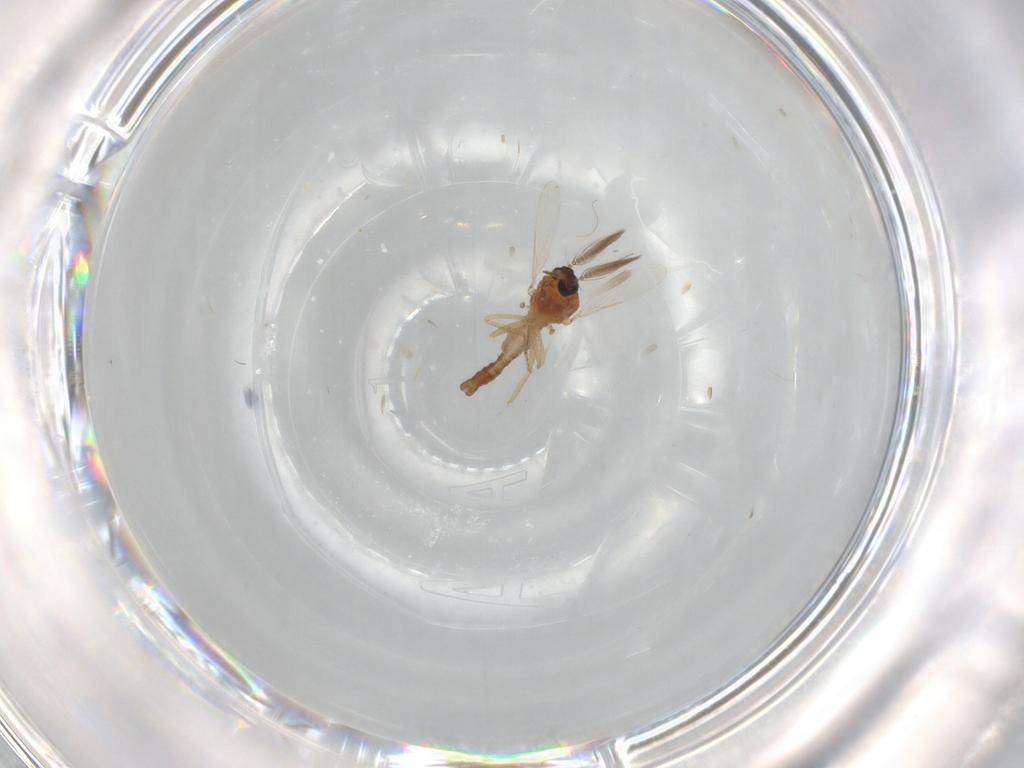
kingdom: Animalia
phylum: Arthropoda
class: Insecta
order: Diptera
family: Ceratopogonidae
